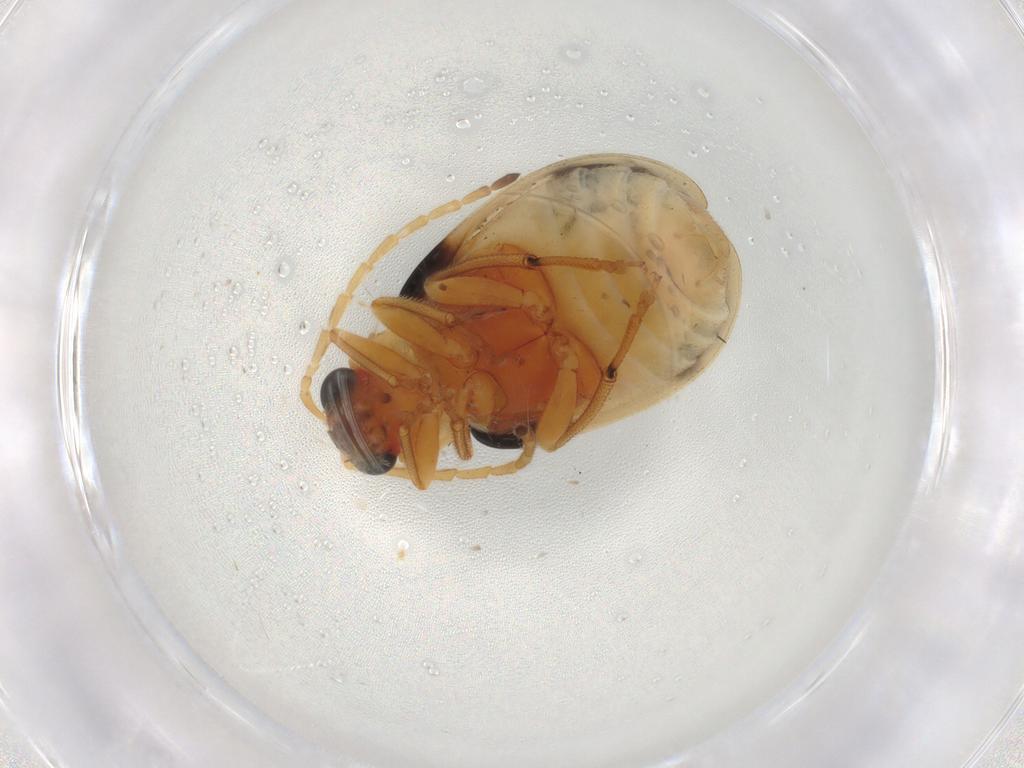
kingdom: Animalia
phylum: Arthropoda
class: Insecta
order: Coleoptera
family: Chrysomelidae
